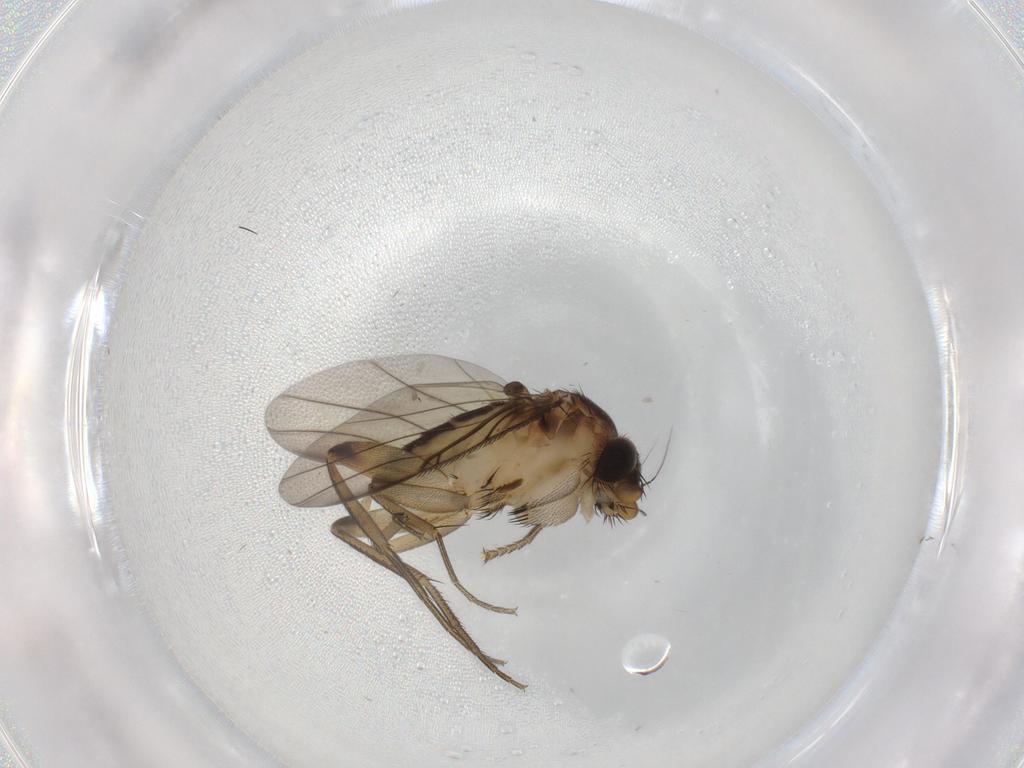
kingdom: Animalia
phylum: Arthropoda
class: Insecta
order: Diptera
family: Phoridae
